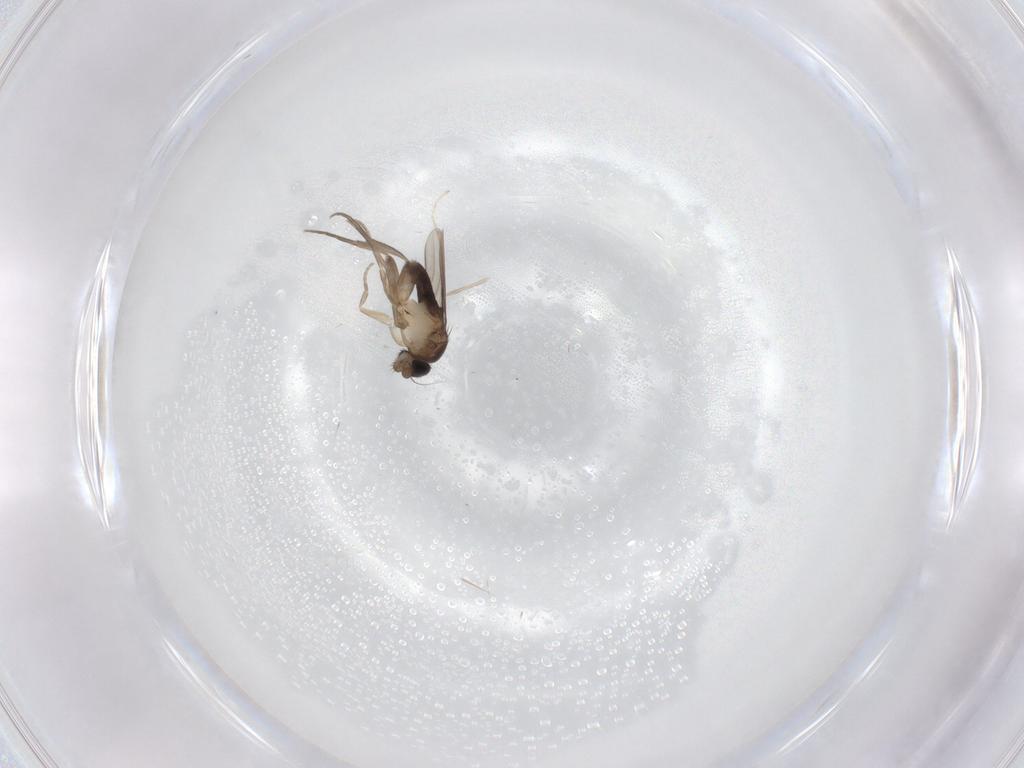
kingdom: Animalia
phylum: Arthropoda
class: Insecta
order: Diptera
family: Phoridae
